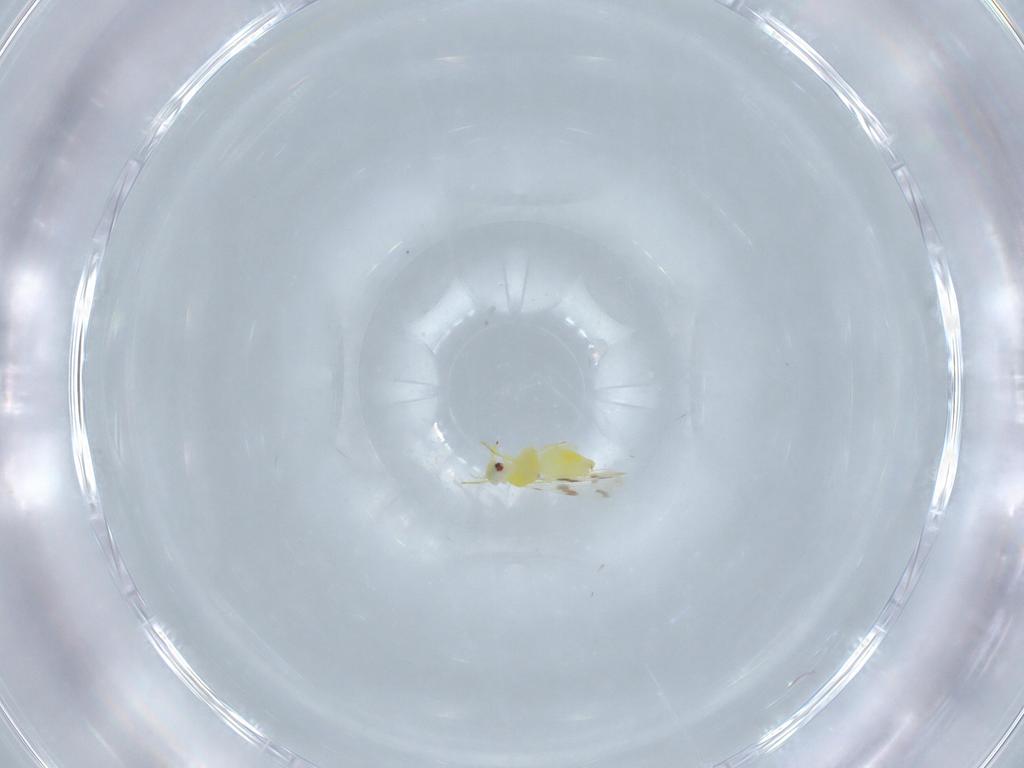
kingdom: Animalia
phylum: Arthropoda
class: Insecta
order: Hemiptera
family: Aleyrodidae
